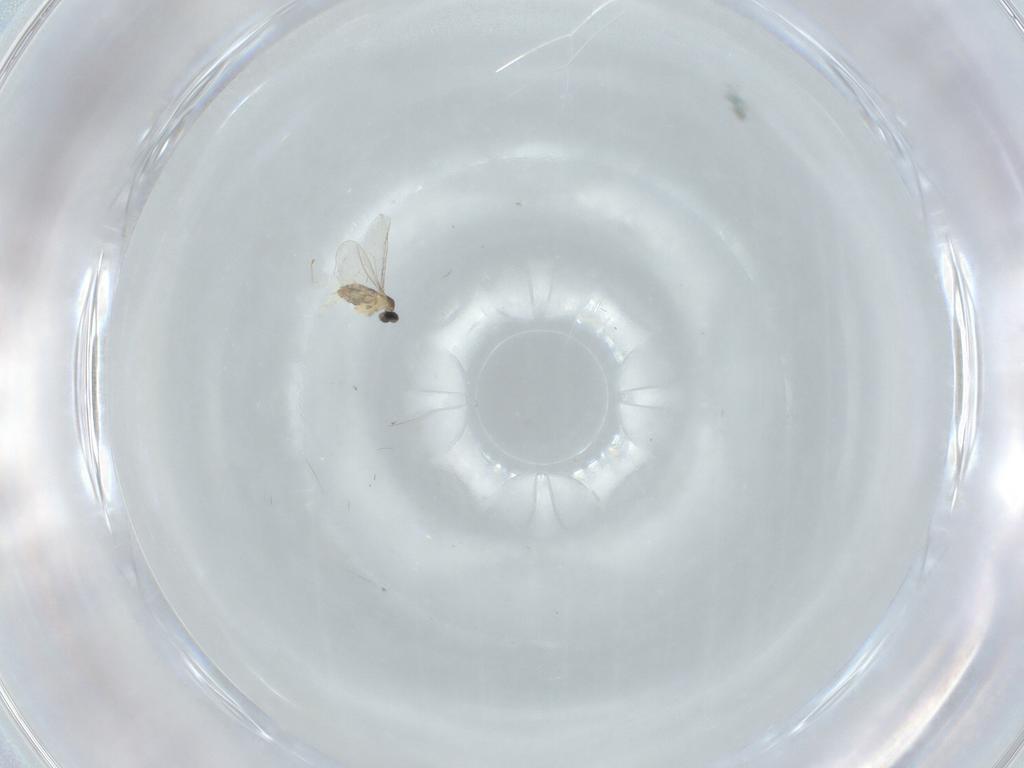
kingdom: Animalia
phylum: Arthropoda
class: Insecta
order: Diptera
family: Cecidomyiidae
